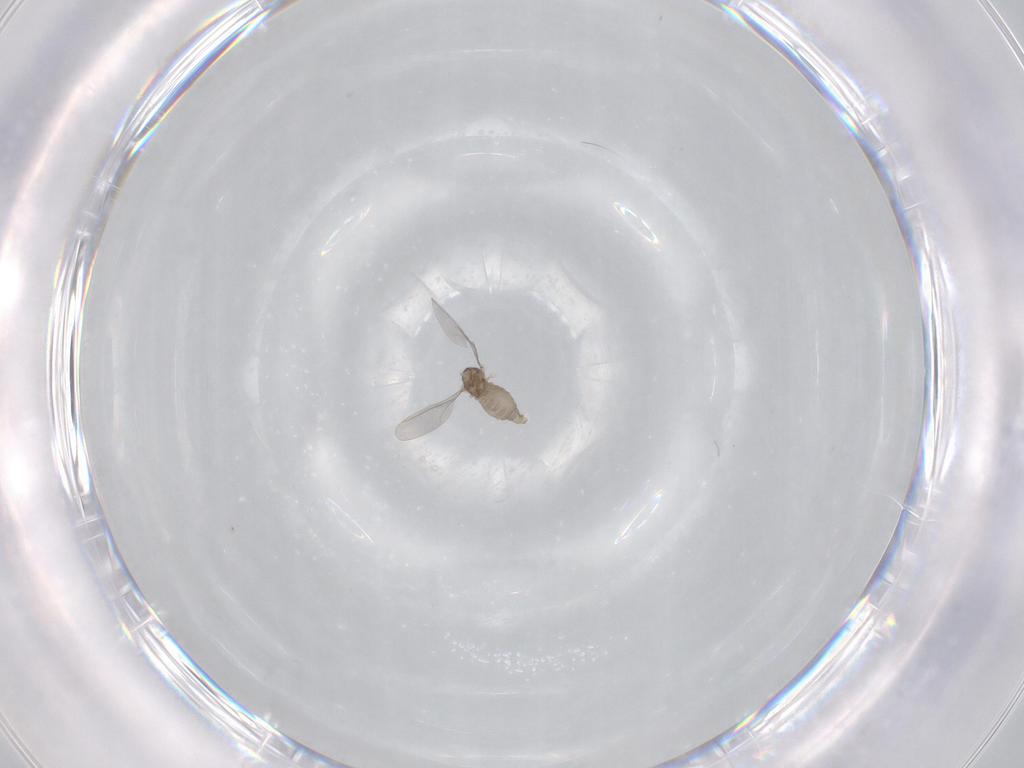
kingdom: Animalia
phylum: Arthropoda
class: Insecta
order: Diptera
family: Cecidomyiidae
